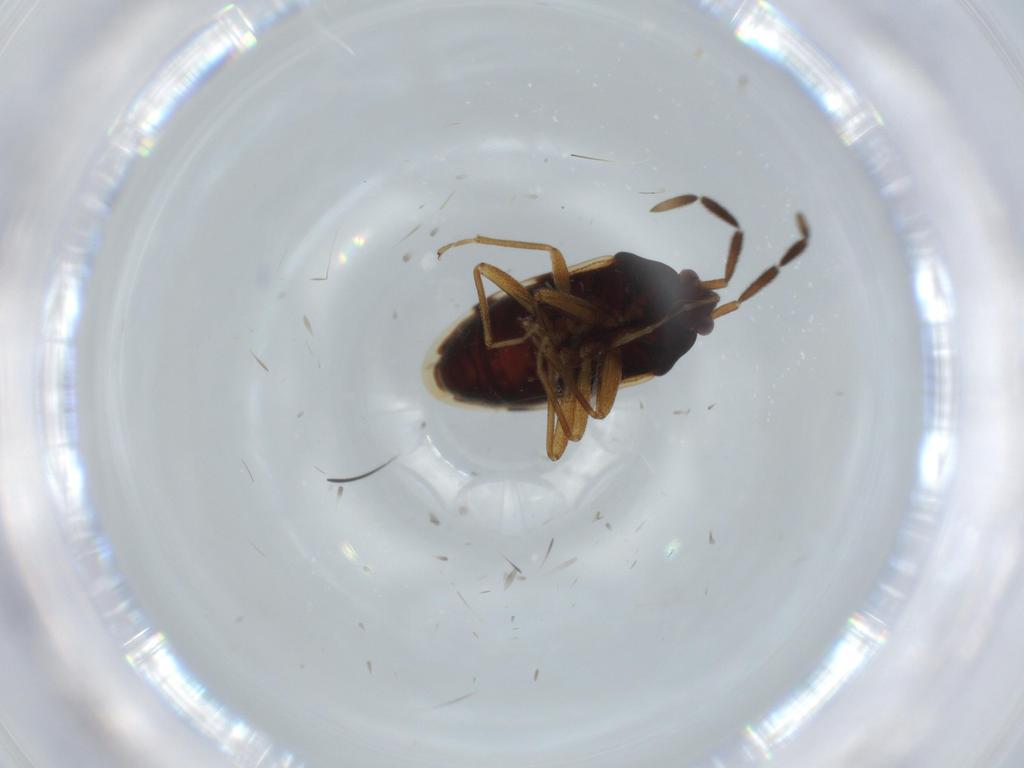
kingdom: Animalia
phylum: Arthropoda
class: Insecta
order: Hemiptera
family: Rhyparochromidae
